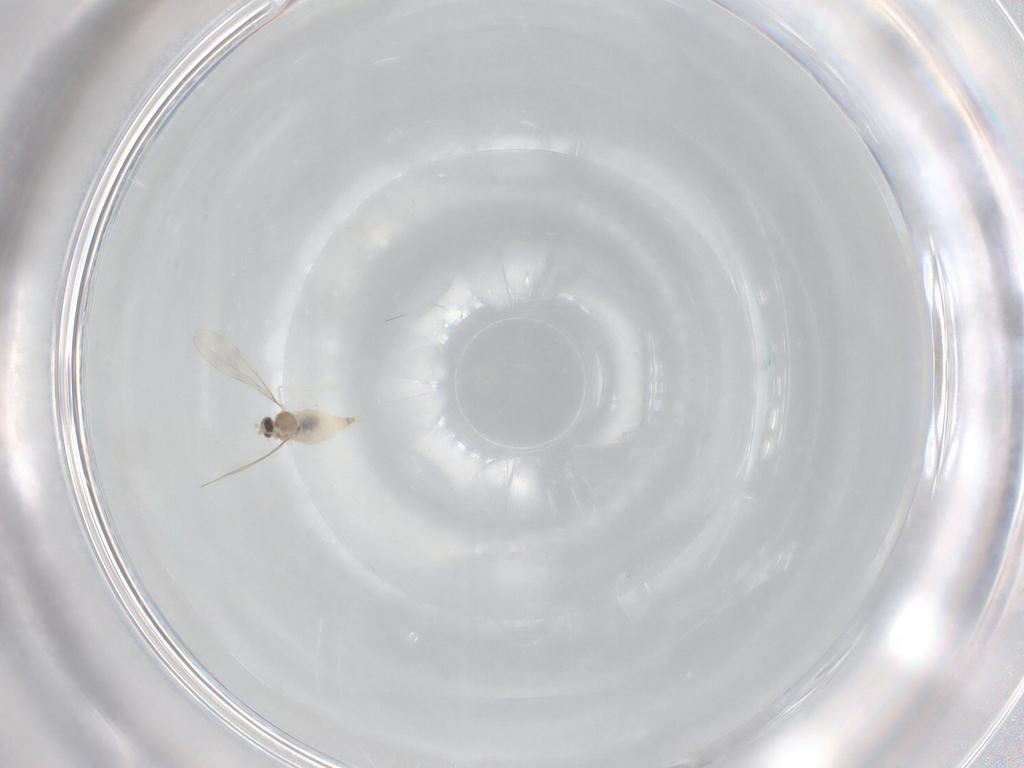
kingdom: Animalia
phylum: Arthropoda
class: Insecta
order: Diptera
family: Cecidomyiidae
